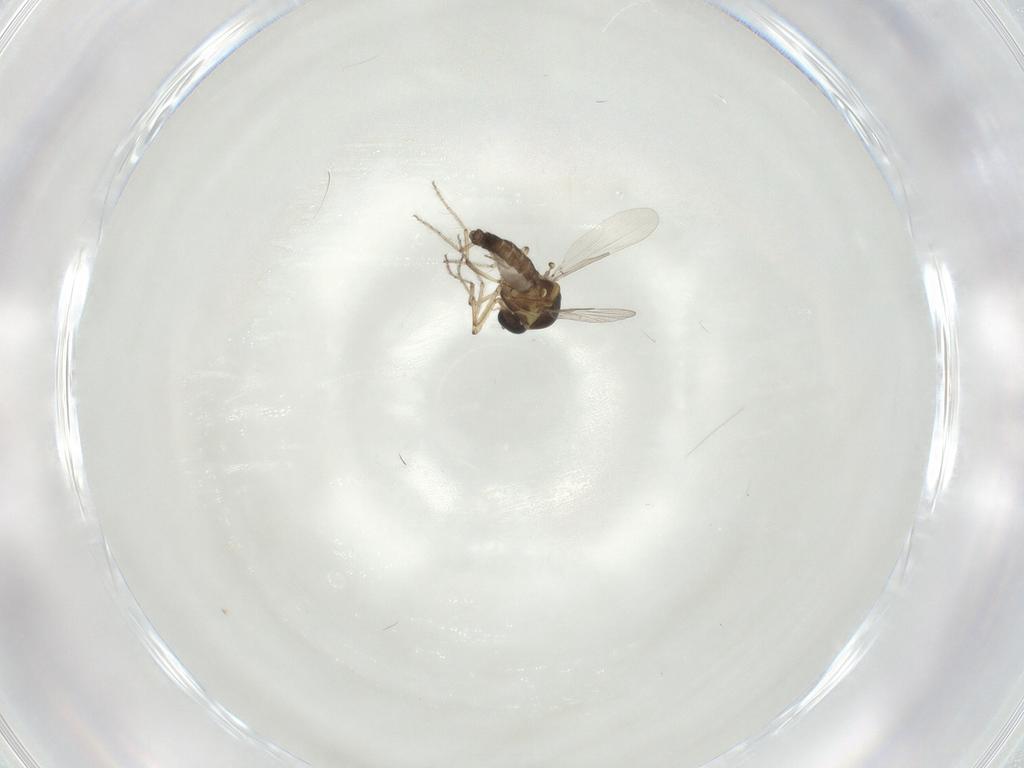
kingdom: Animalia
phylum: Arthropoda
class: Insecta
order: Diptera
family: Ceratopogonidae
